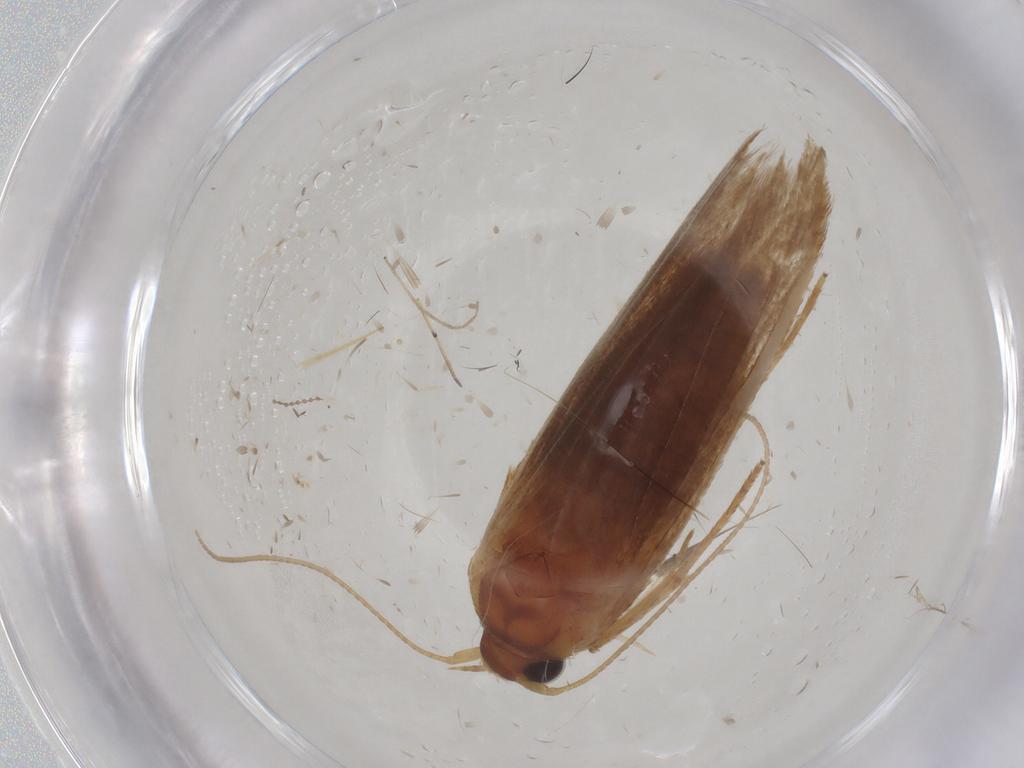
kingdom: Animalia
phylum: Arthropoda
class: Insecta
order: Lepidoptera
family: Blastobasidae
